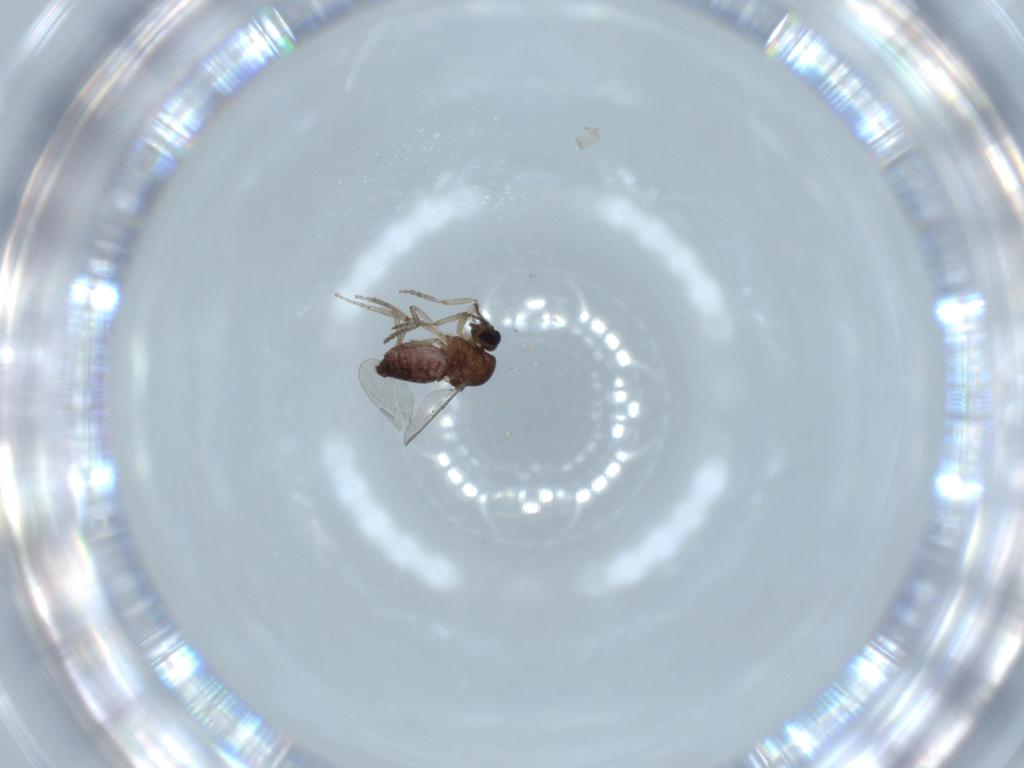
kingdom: Animalia
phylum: Arthropoda
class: Insecta
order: Diptera
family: Ceratopogonidae
